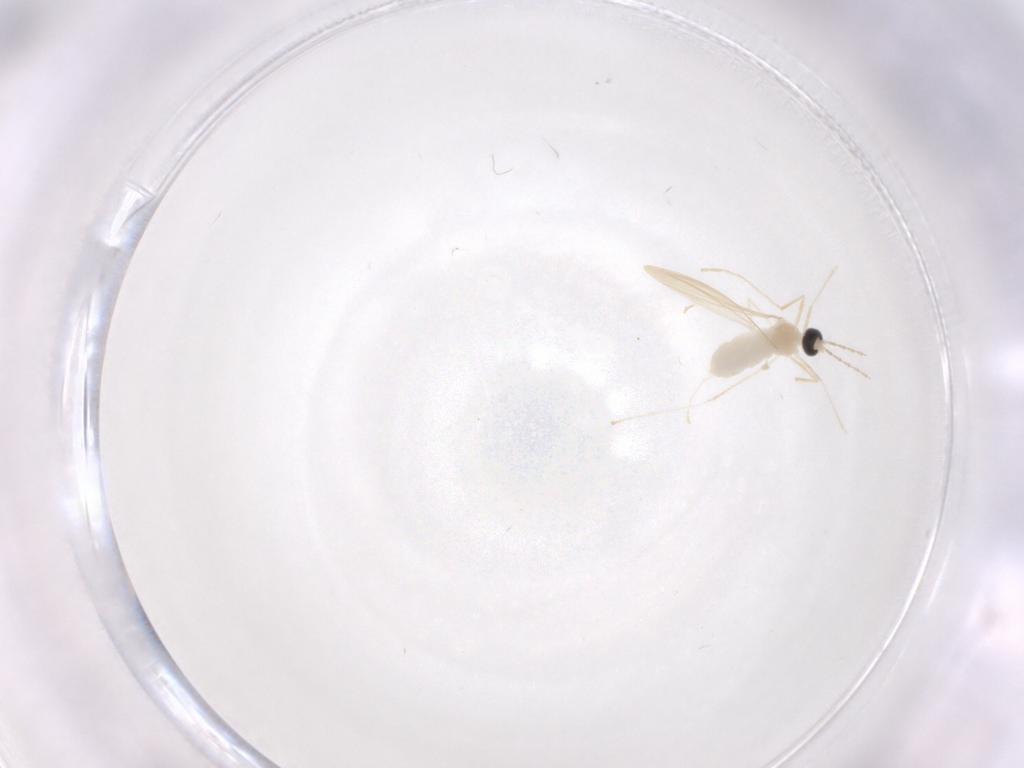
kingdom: Animalia
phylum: Arthropoda
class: Insecta
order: Diptera
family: Cecidomyiidae
